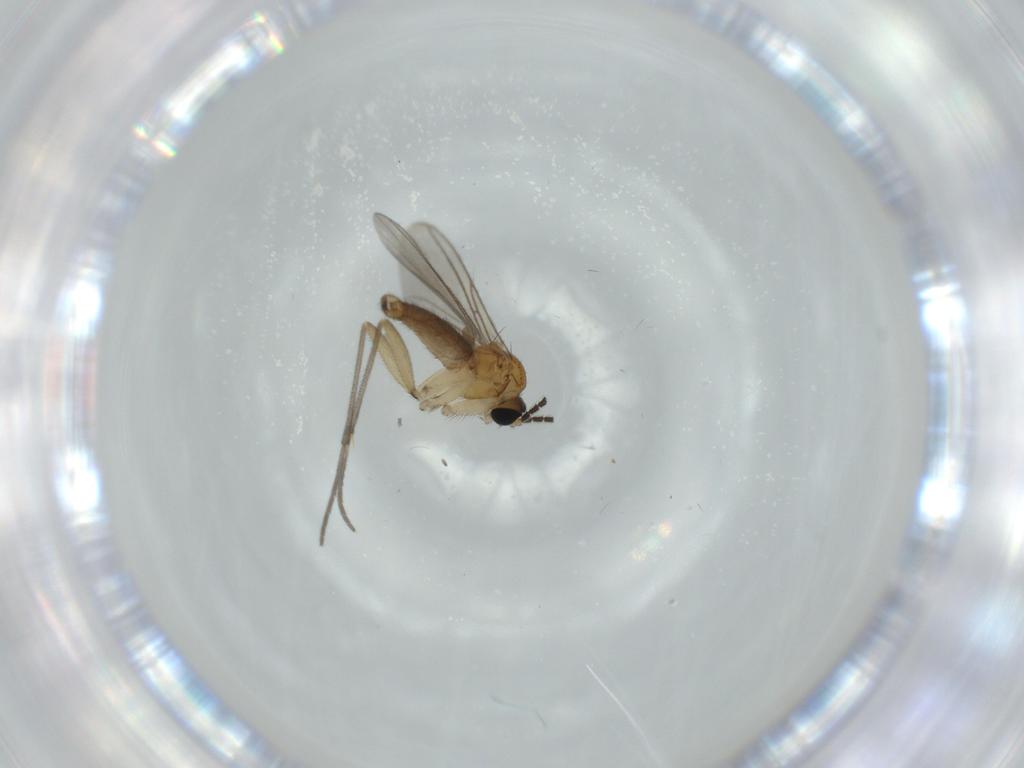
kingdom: Animalia
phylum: Arthropoda
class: Insecta
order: Diptera
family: Sciaridae
